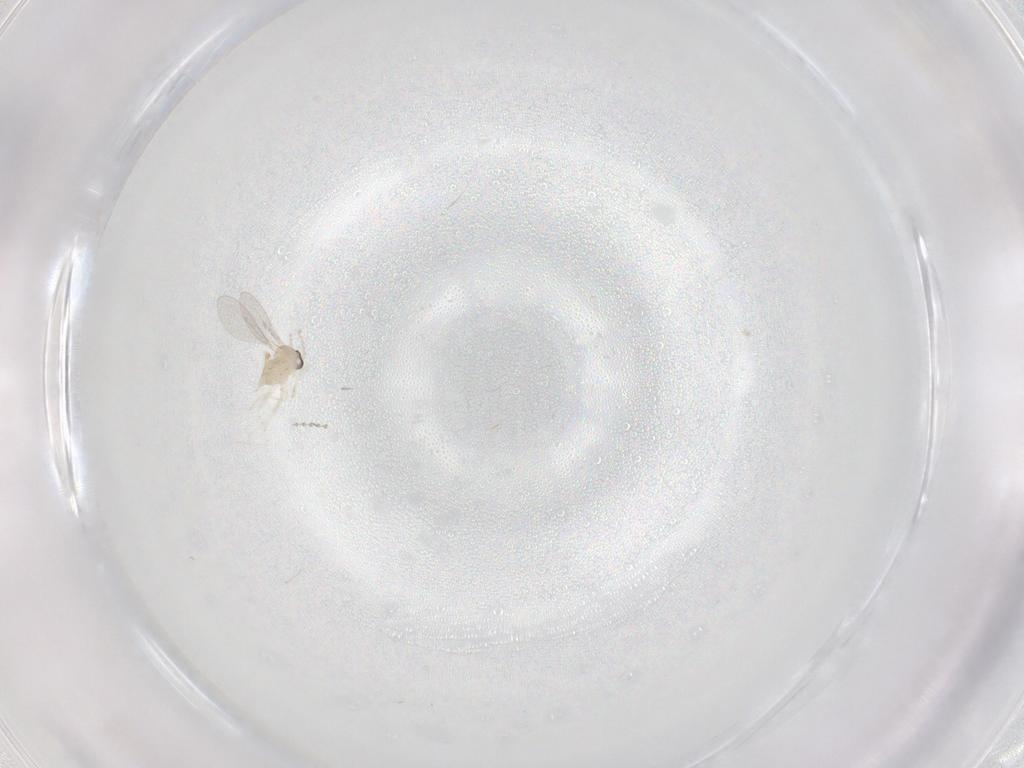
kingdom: Animalia
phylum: Arthropoda
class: Insecta
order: Diptera
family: Cecidomyiidae
